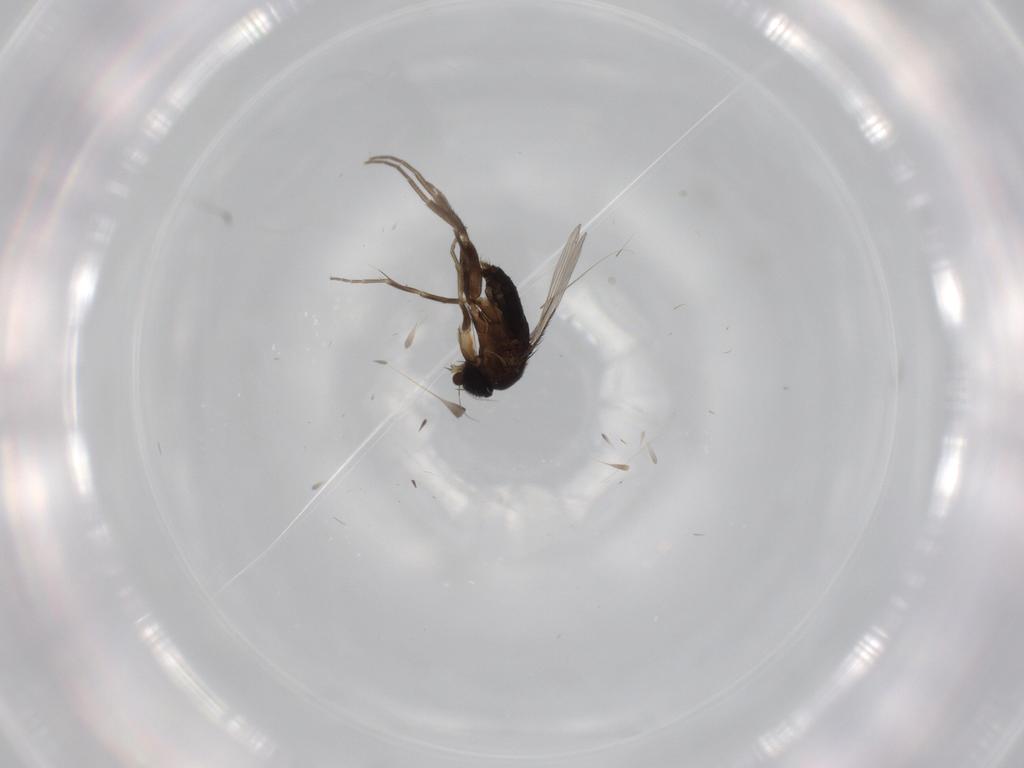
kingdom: Animalia
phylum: Arthropoda
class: Insecta
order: Diptera
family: Phoridae
